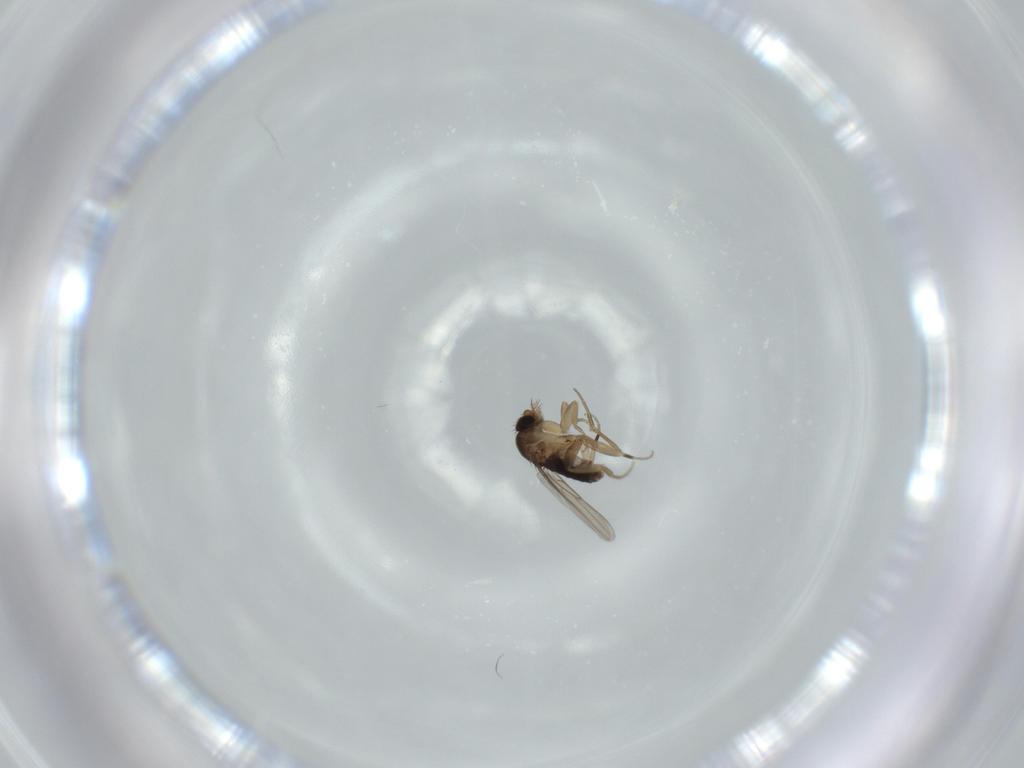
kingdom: Animalia
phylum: Arthropoda
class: Insecta
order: Diptera
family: Phoridae
